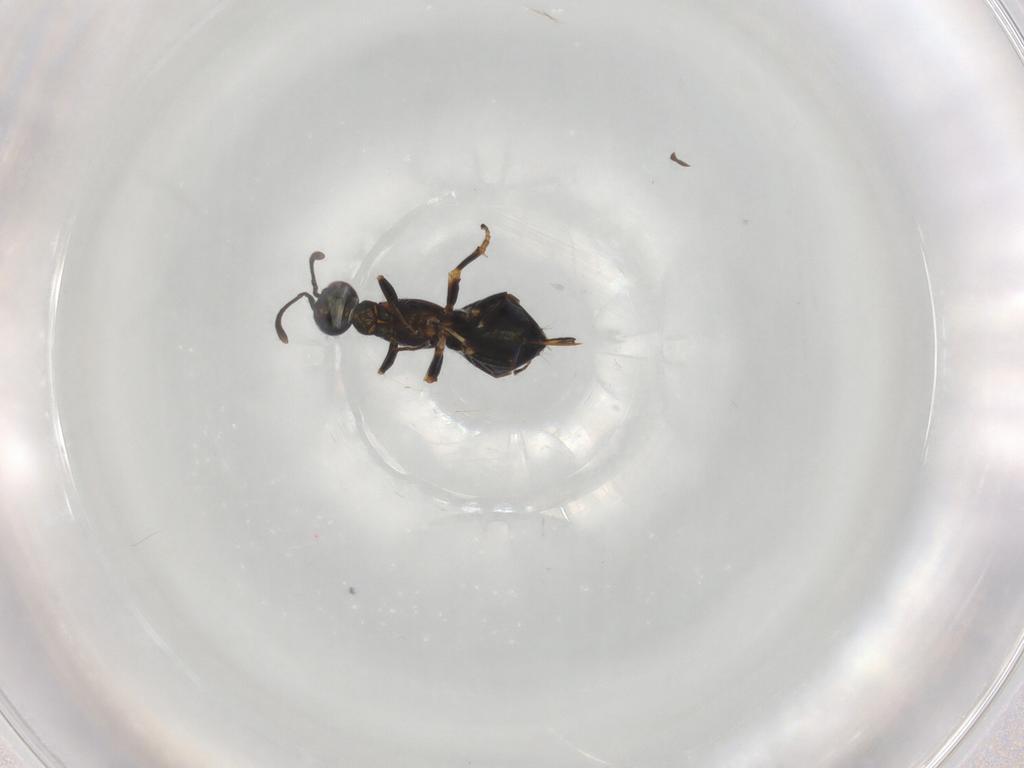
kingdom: Animalia
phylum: Arthropoda
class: Insecta
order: Hymenoptera
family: Eupelmidae
